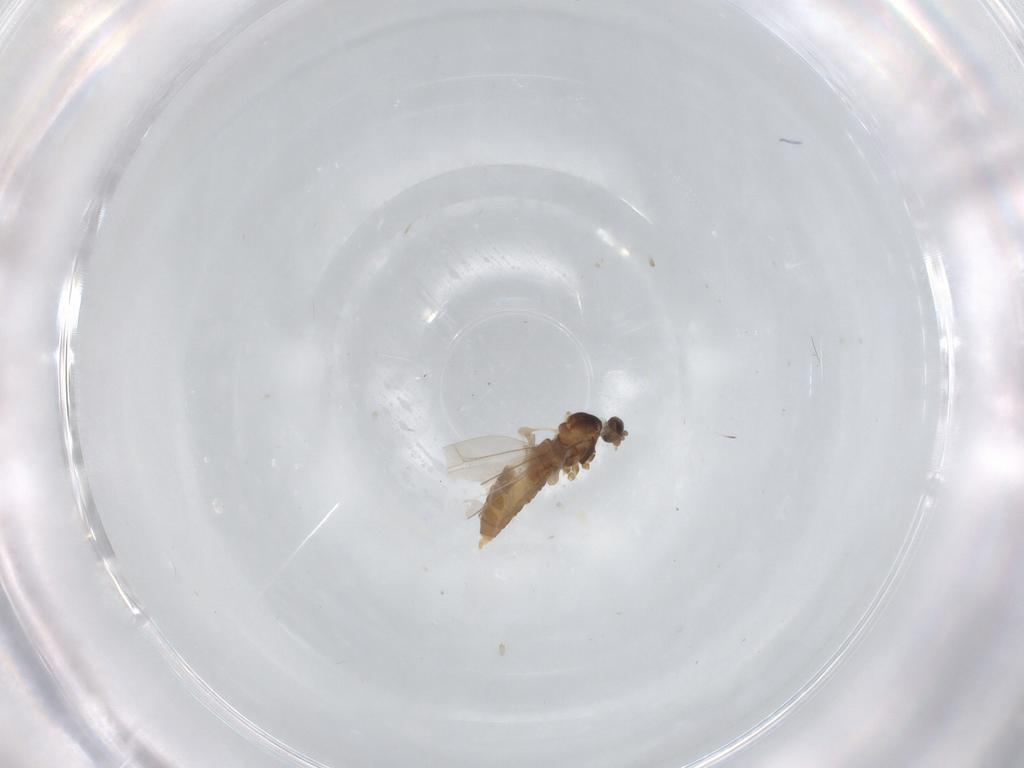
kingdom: Animalia
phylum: Arthropoda
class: Insecta
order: Diptera
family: Cecidomyiidae
